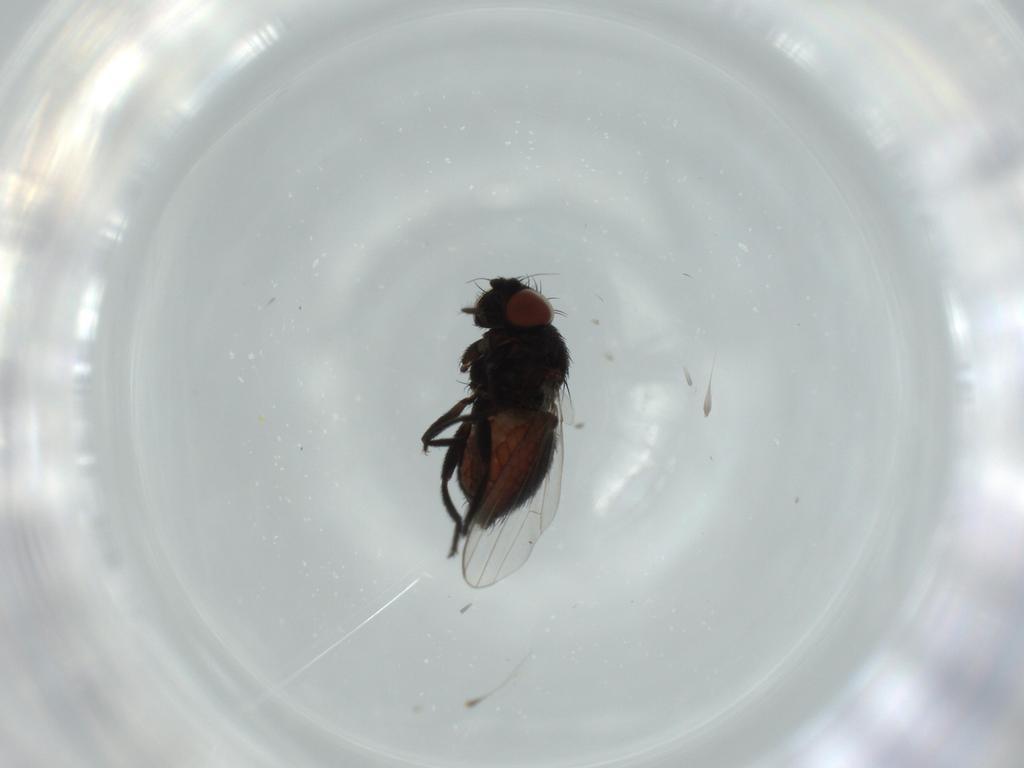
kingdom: Animalia
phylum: Arthropoda
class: Insecta
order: Diptera
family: Milichiidae
